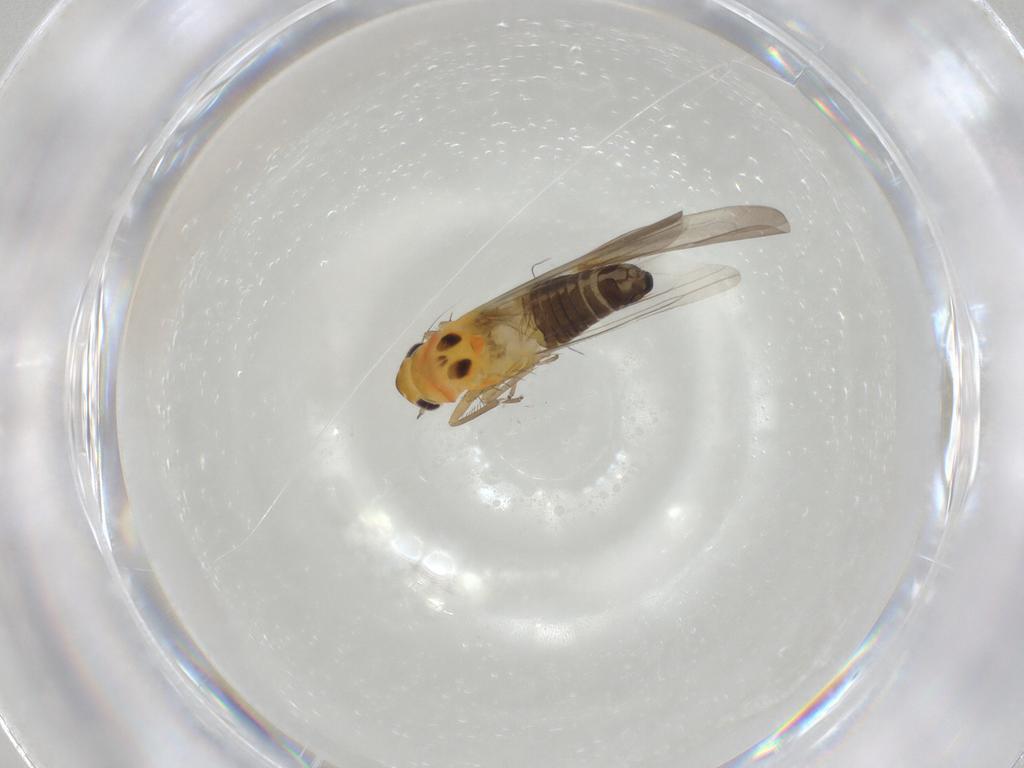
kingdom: Animalia
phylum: Arthropoda
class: Insecta
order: Hemiptera
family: Cicadellidae
